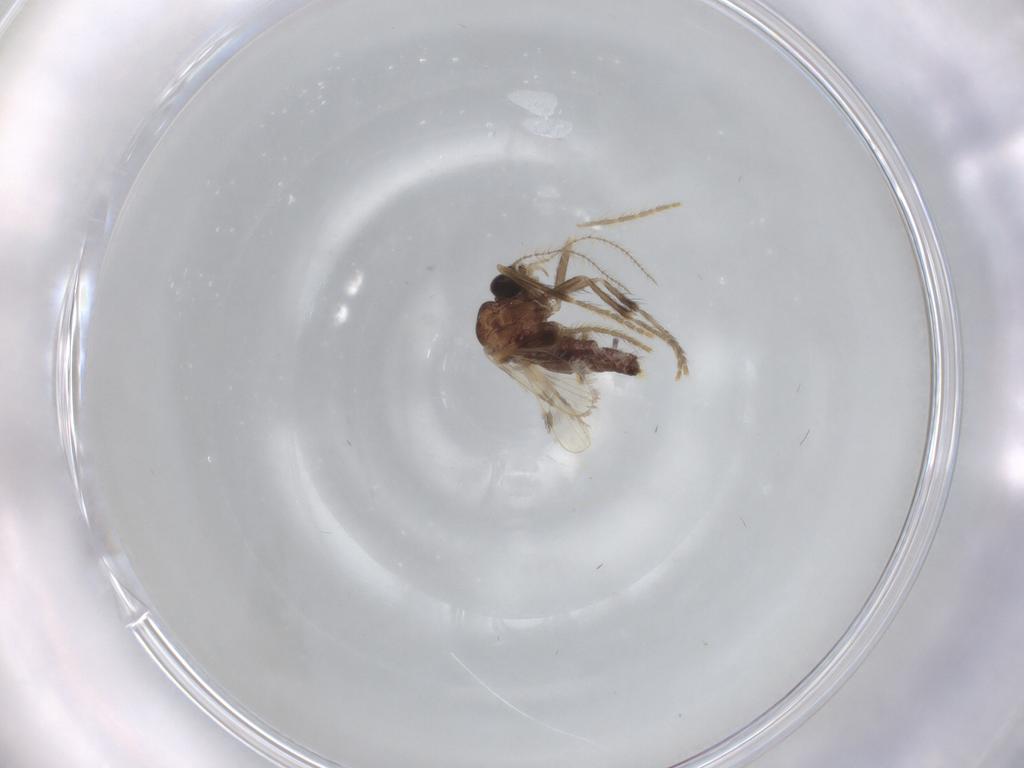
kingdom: Animalia
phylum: Arthropoda
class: Insecta
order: Diptera
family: Corethrellidae
